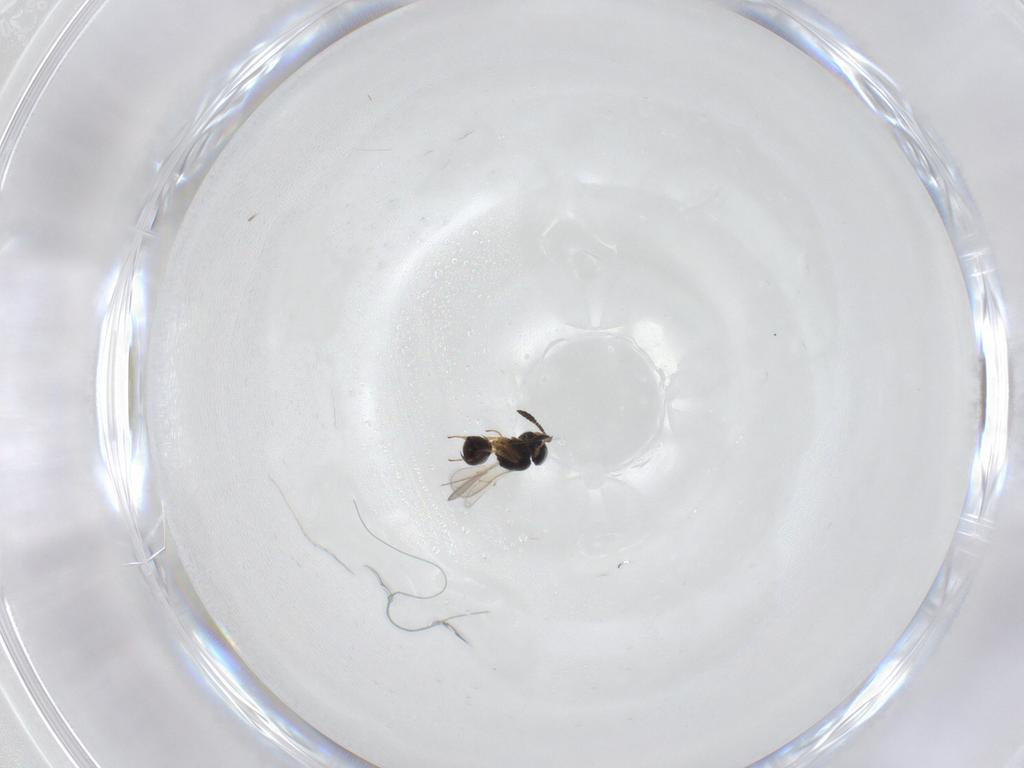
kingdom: Animalia
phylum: Arthropoda
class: Insecta
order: Hymenoptera
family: Scelionidae
